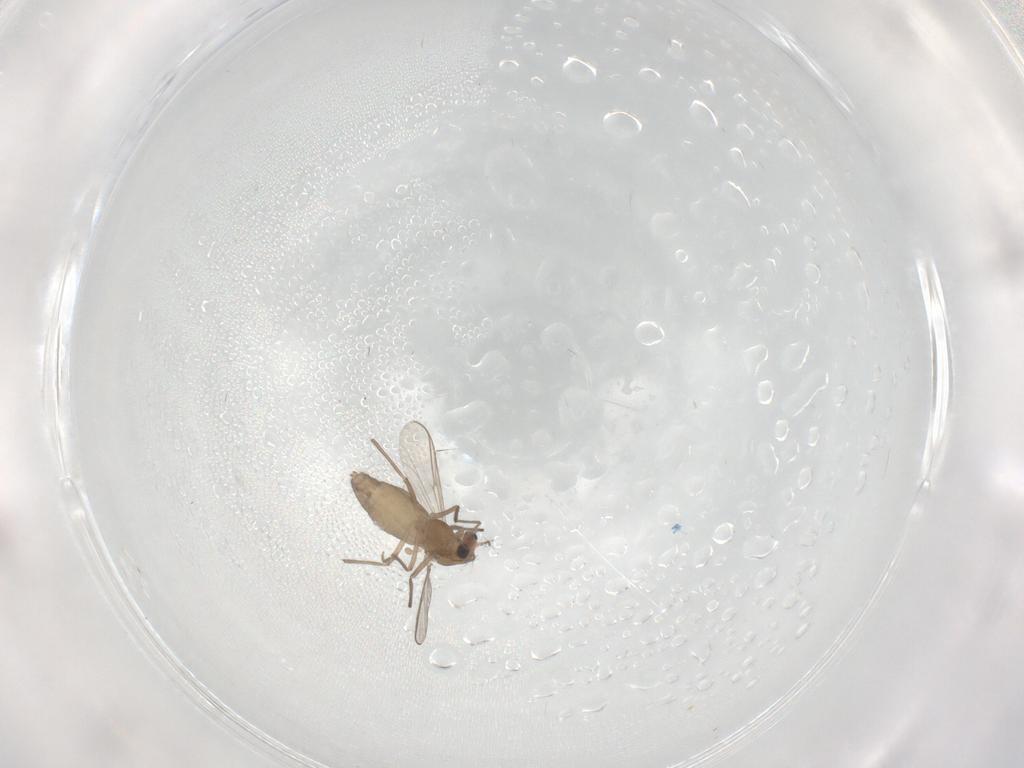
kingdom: Animalia
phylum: Arthropoda
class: Insecta
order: Diptera
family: Chironomidae
